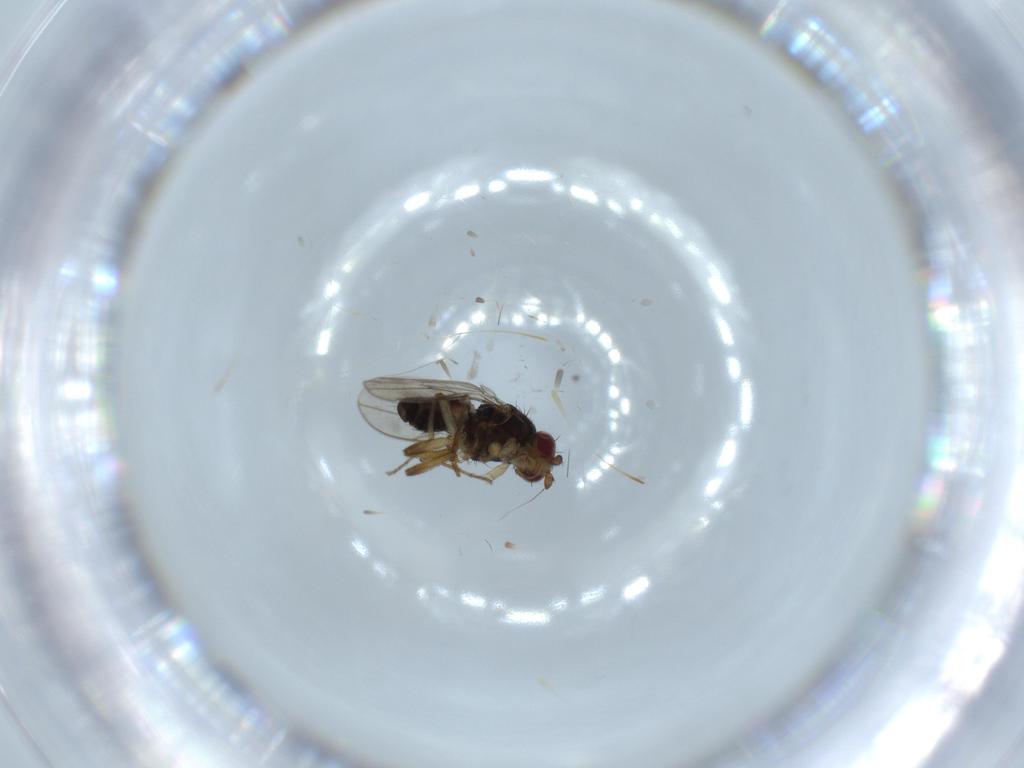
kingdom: Animalia
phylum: Arthropoda
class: Insecta
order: Diptera
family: Sphaeroceridae
